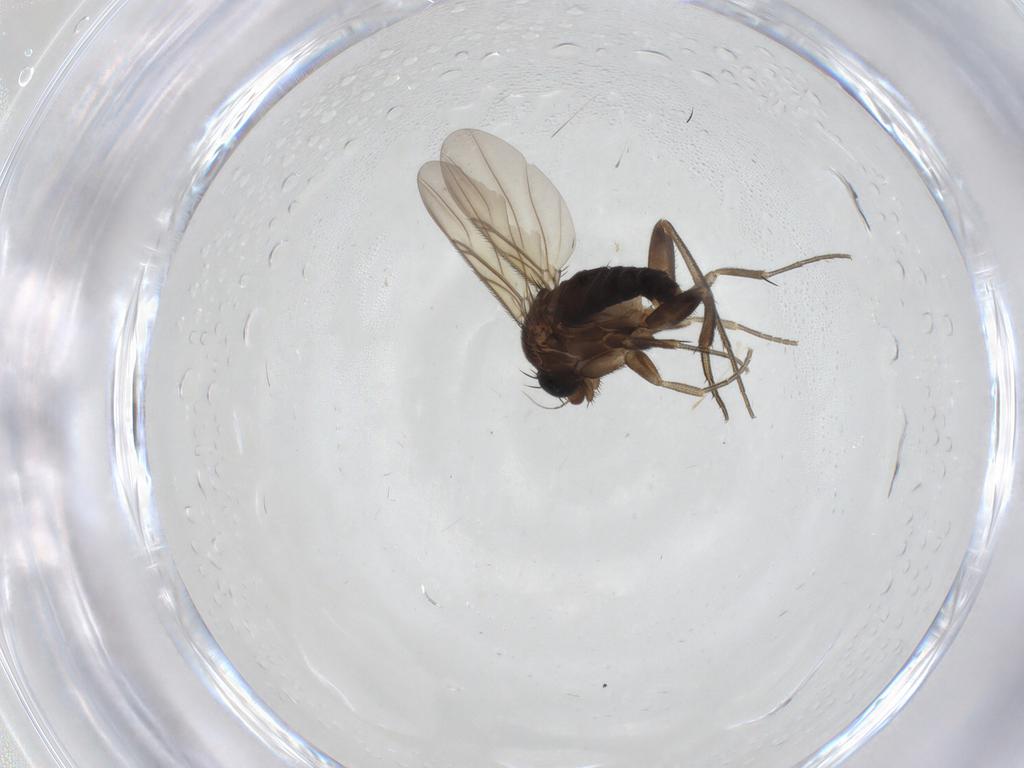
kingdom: Animalia
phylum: Arthropoda
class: Insecta
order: Diptera
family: Phoridae
